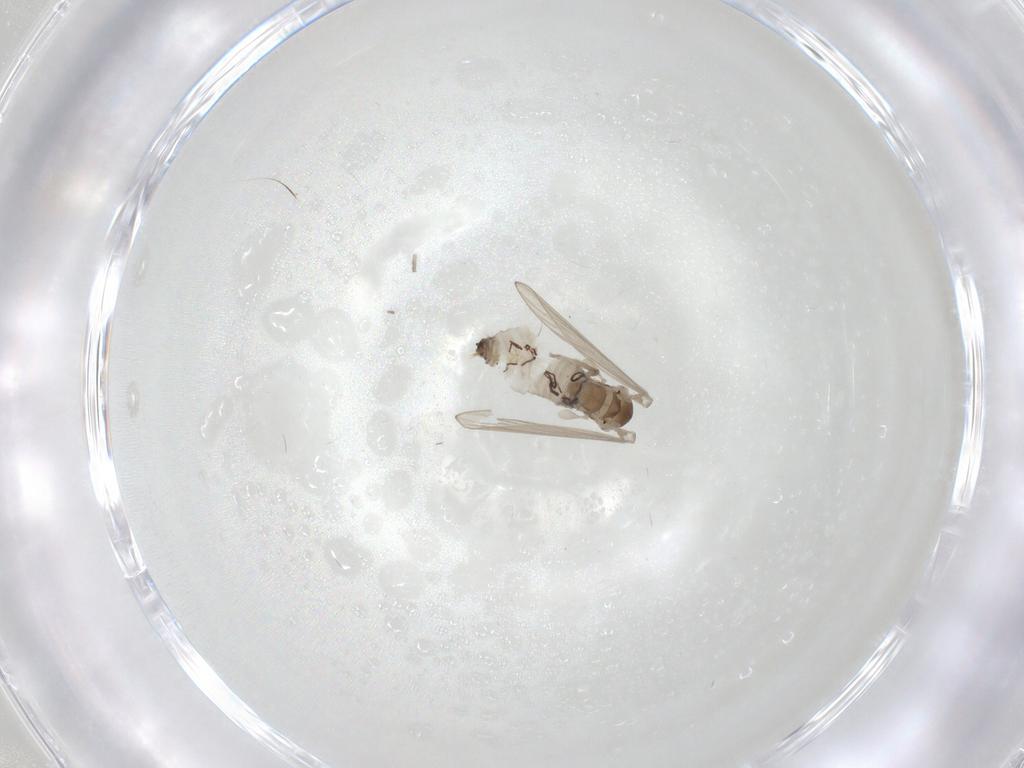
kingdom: Animalia
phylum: Arthropoda
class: Insecta
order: Diptera
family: Psychodidae
